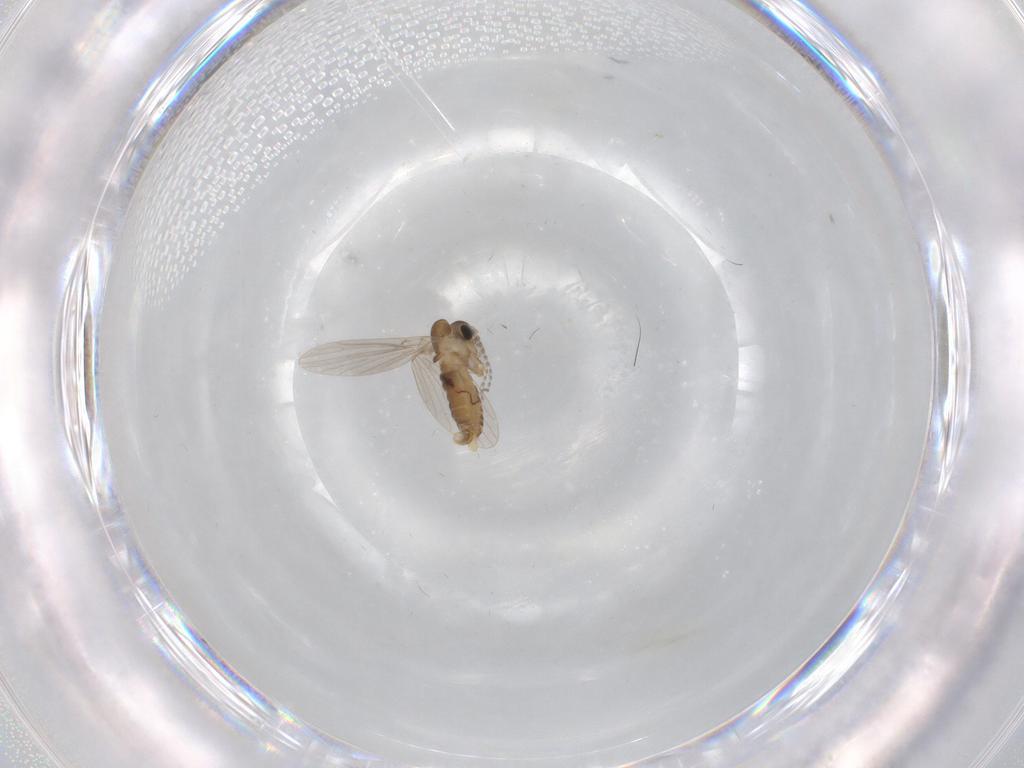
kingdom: Animalia
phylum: Arthropoda
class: Insecta
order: Diptera
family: Psychodidae
